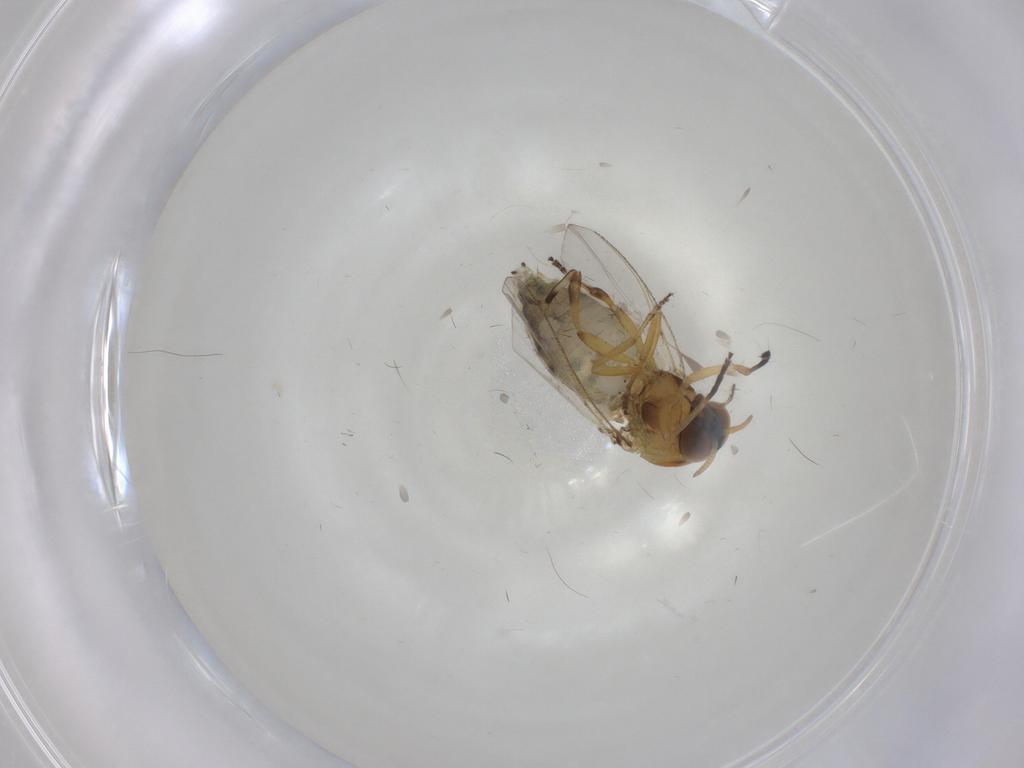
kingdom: Animalia
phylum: Arthropoda
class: Insecta
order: Diptera
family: Simuliidae
